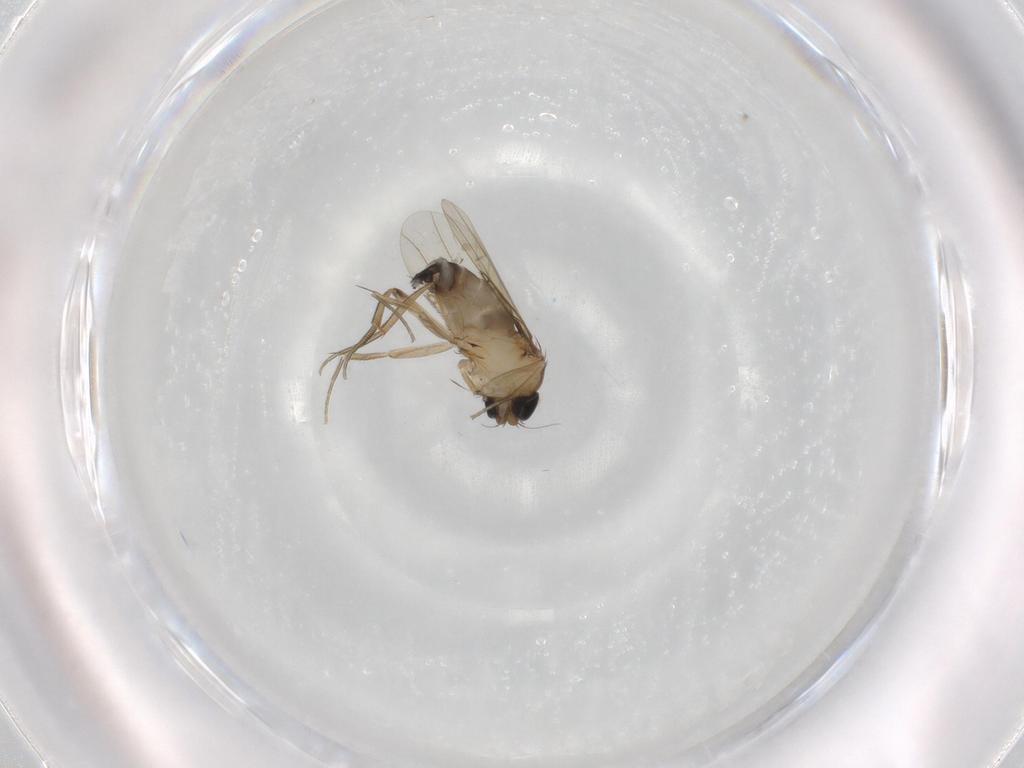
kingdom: Animalia
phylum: Arthropoda
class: Insecta
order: Diptera
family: Phoridae
